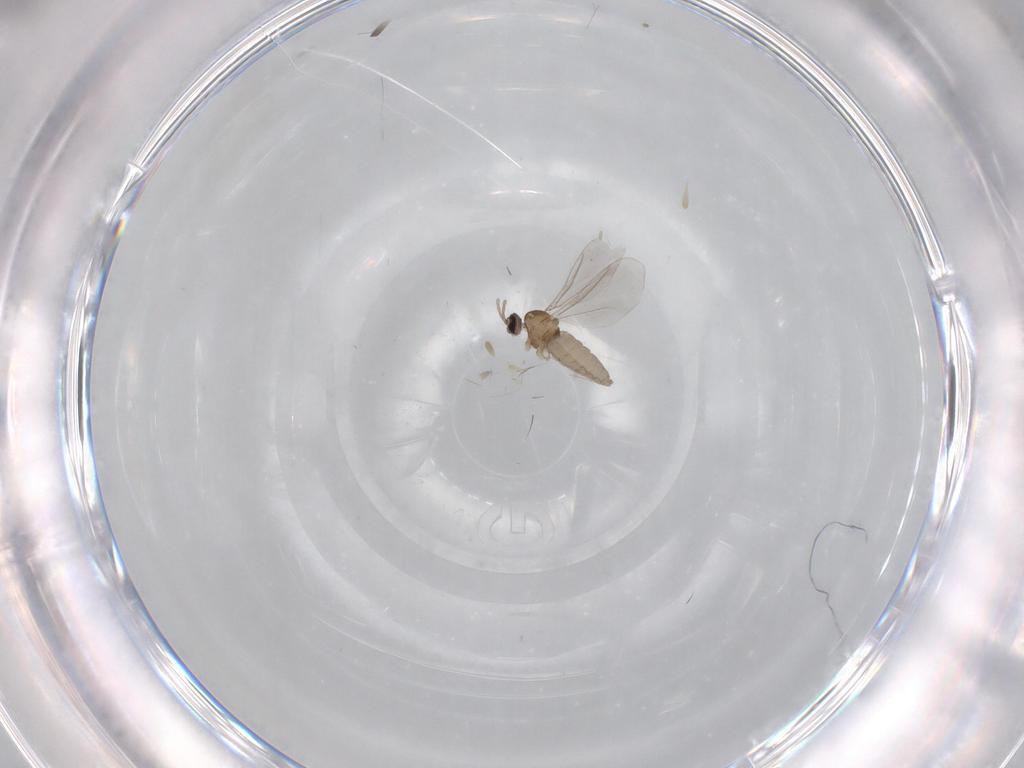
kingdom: Animalia
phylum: Arthropoda
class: Insecta
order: Diptera
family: Cecidomyiidae
